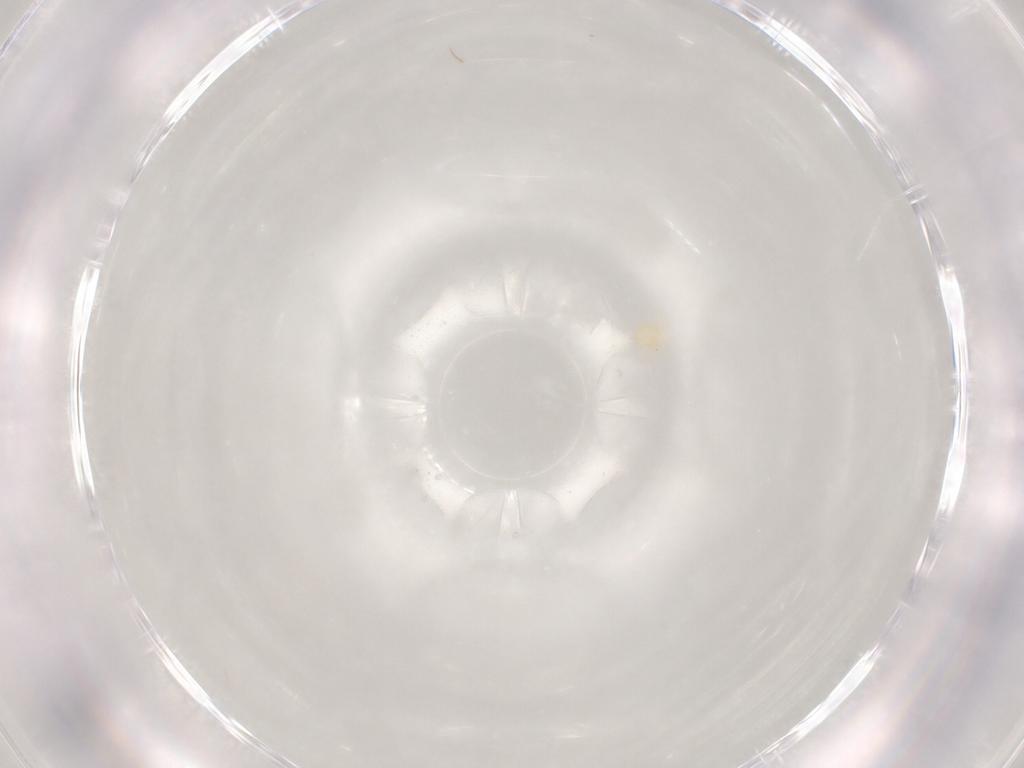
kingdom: Animalia
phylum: Arthropoda
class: Arachnida
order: Trombidiformes
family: Anystidae
